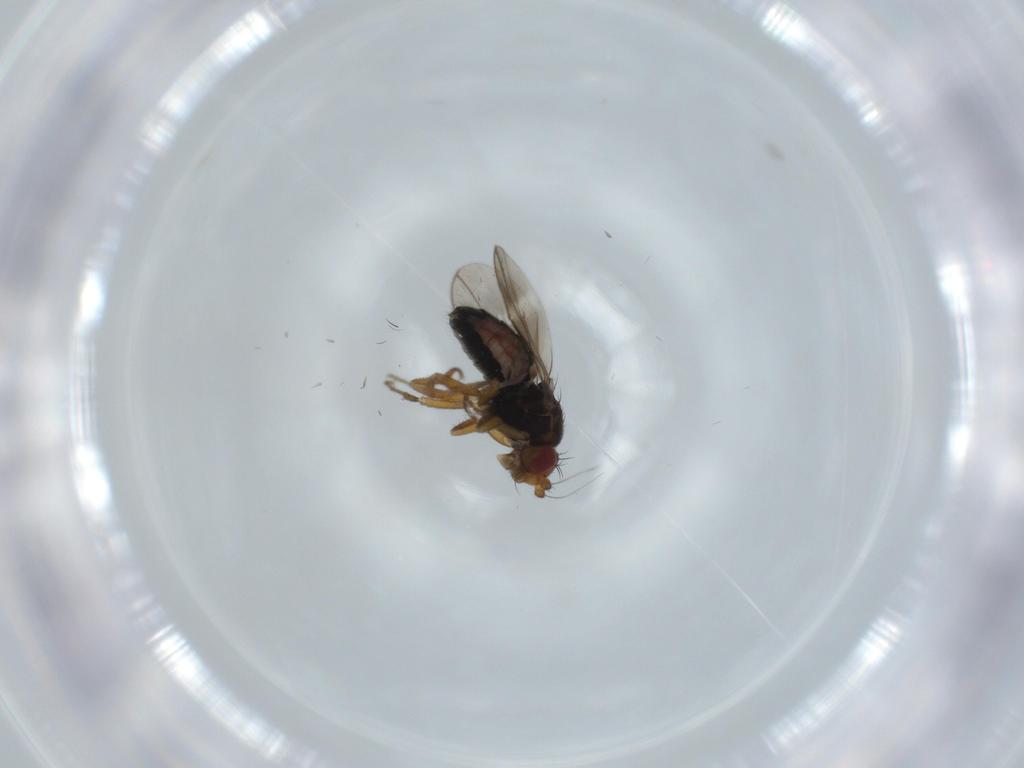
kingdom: Animalia
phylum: Arthropoda
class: Insecta
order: Diptera
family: Sphaeroceridae
